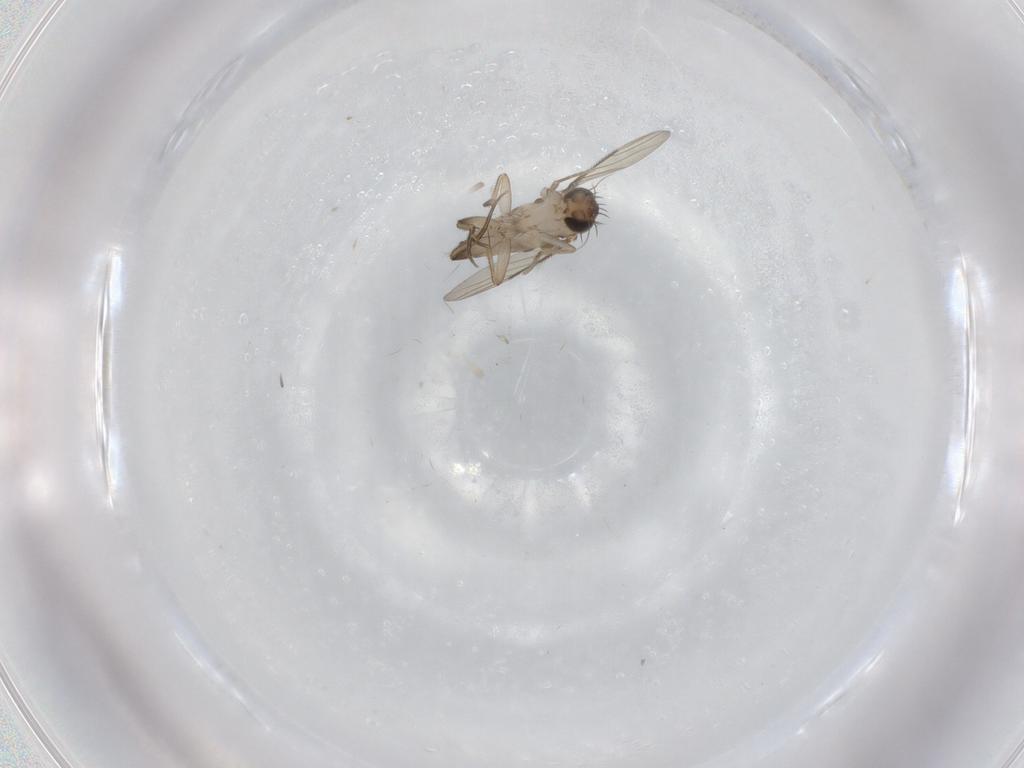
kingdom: Animalia
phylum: Arthropoda
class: Insecta
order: Diptera
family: Phoridae
